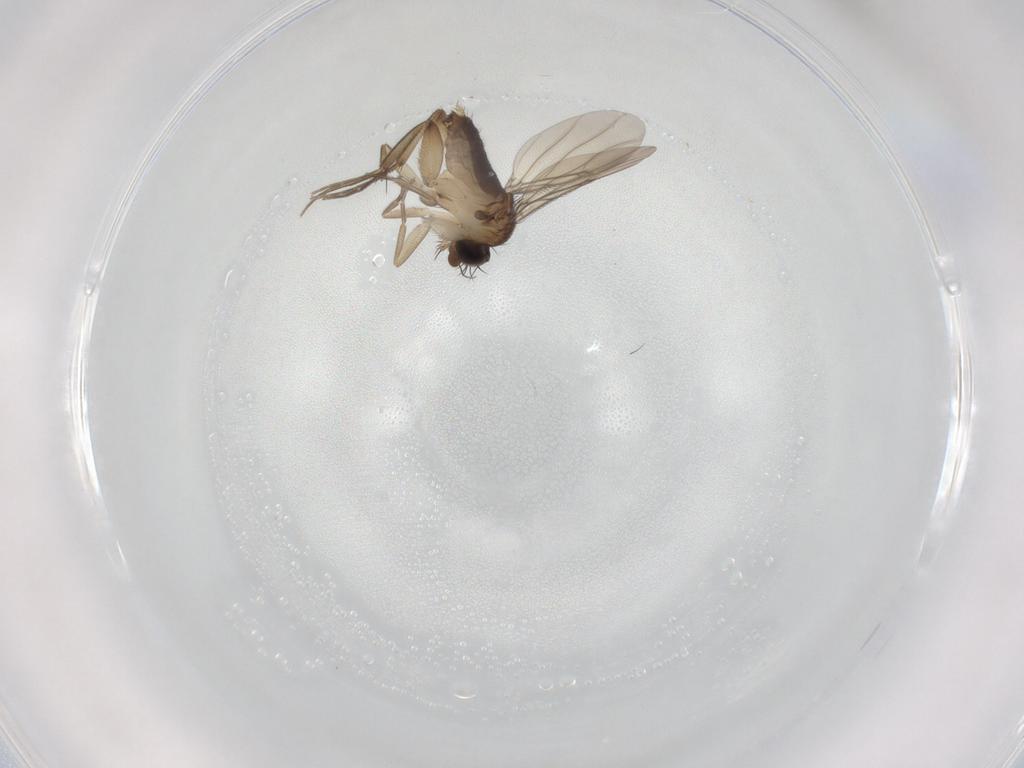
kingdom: Animalia
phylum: Arthropoda
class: Insecta
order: Diptera
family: Phoridae
